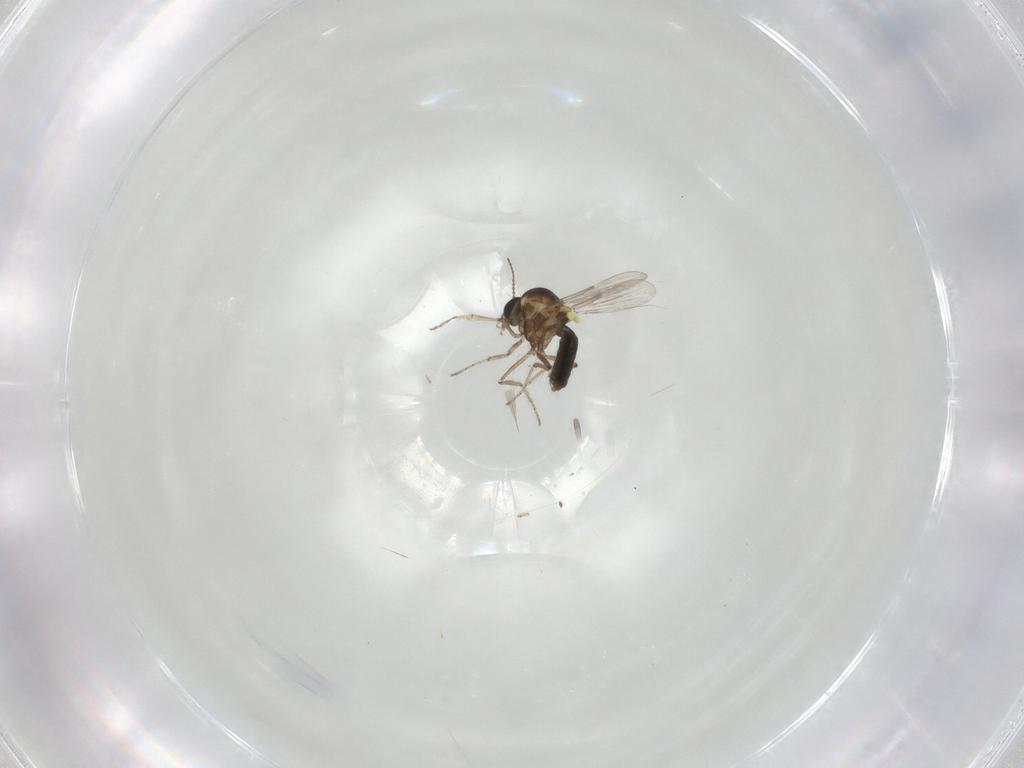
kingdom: Animalia
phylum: Arthropoda
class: Insecta
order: Diptera
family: Ceratopogonidae
